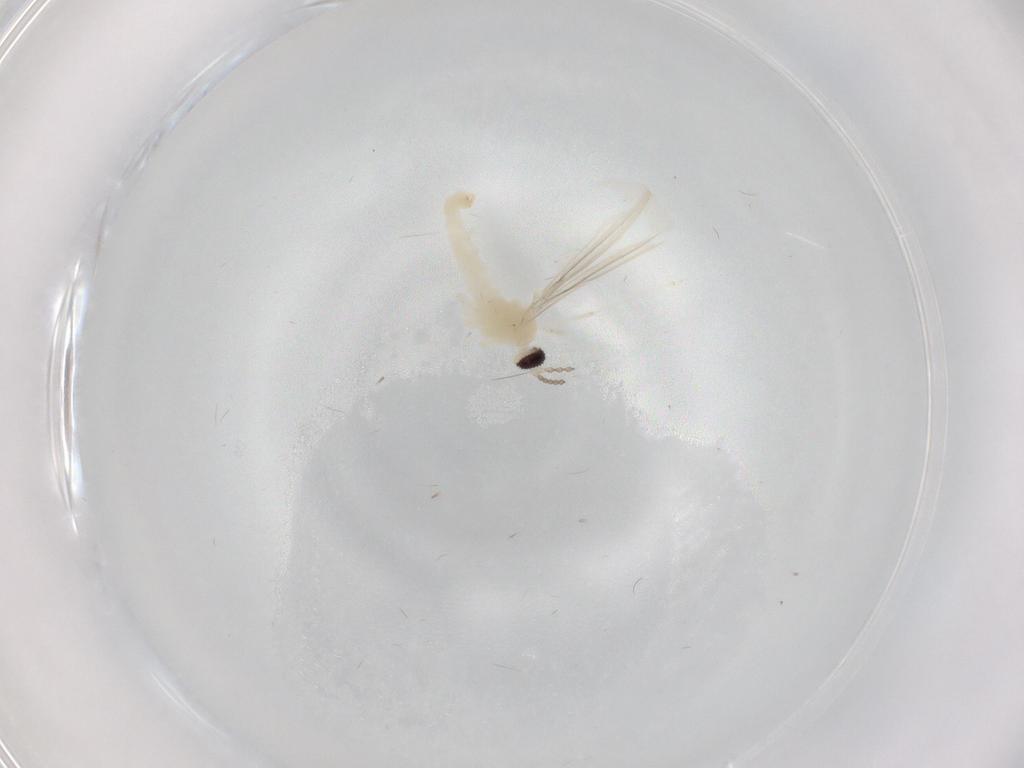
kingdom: Animalia
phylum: Arthropoda
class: Insecta
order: Diptera
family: Cecidomyiidae
